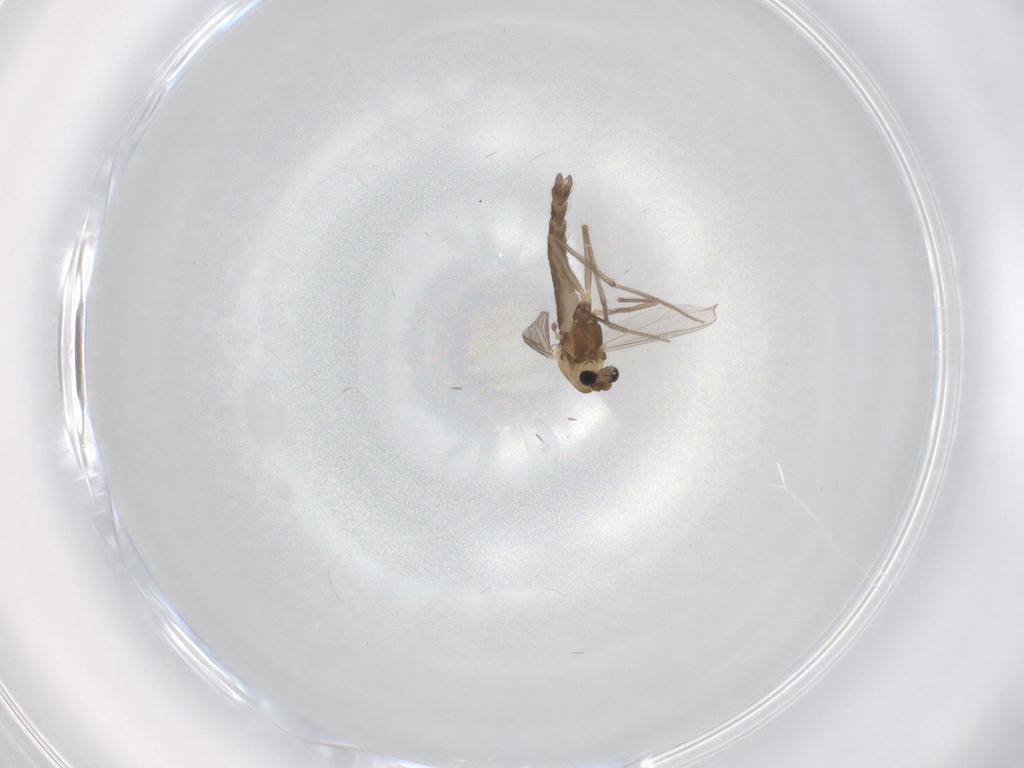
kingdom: Animalia
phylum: Arthropoda
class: Insecta
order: Diptera
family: Chironomidae
